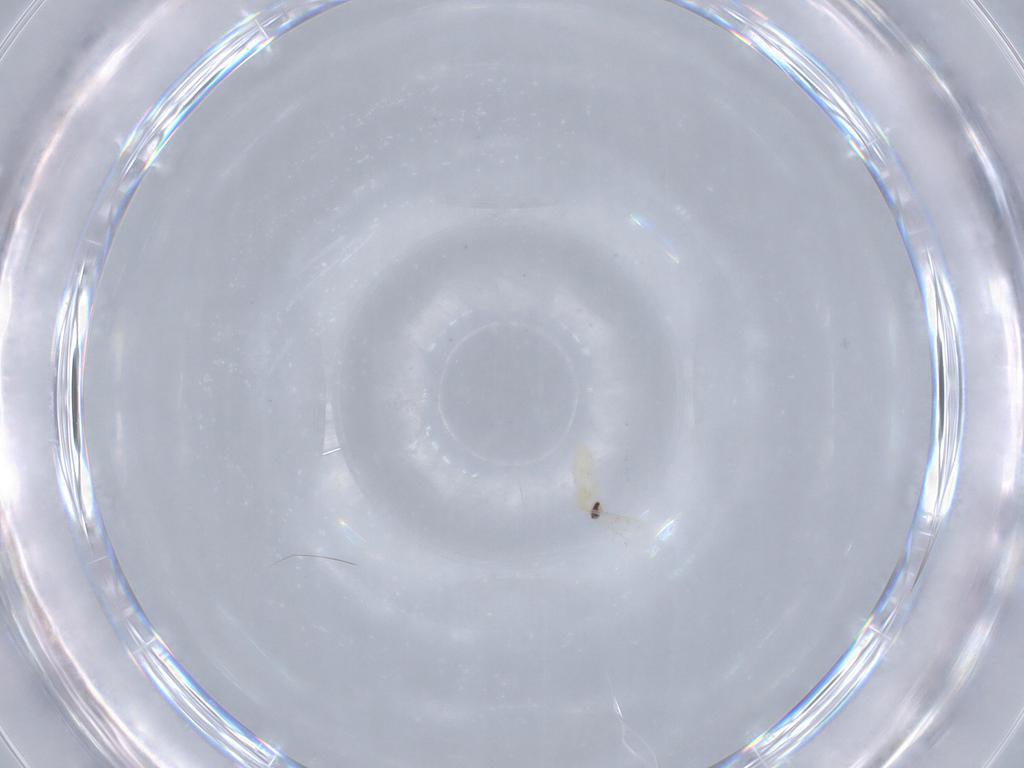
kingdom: Animalia
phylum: Arthropoda
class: Insecta
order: Diptera
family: Cecidomyiidae
